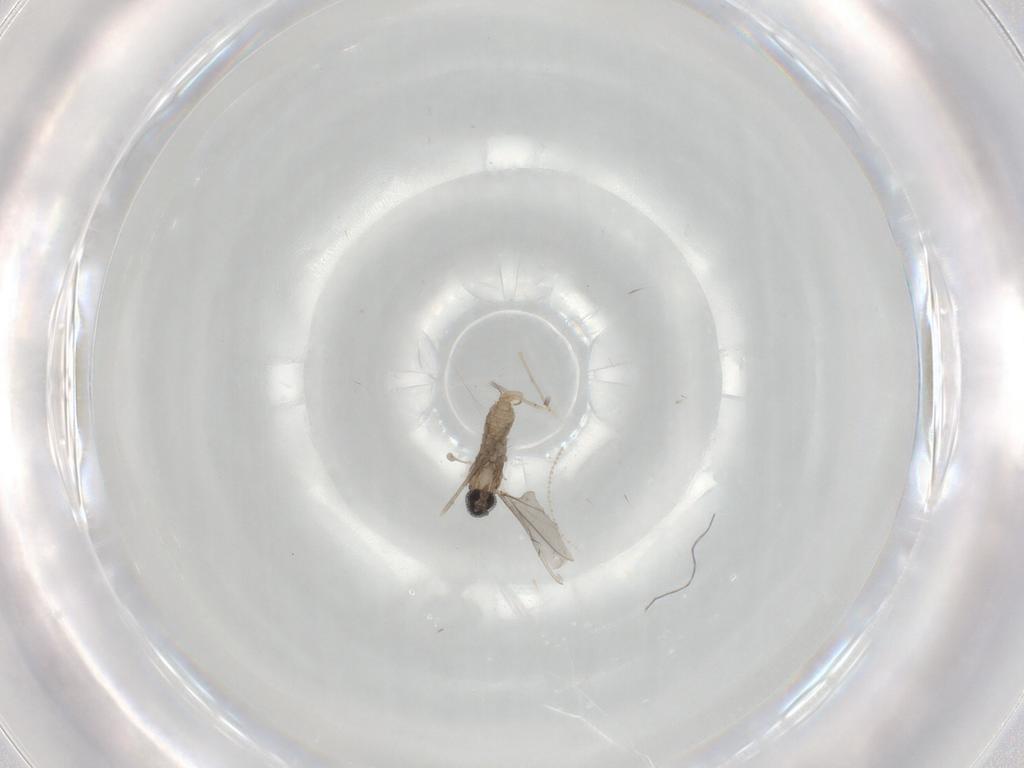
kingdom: Animalia
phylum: Arthropoda
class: Insecta
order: Diptera
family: Cecidomyiidae
